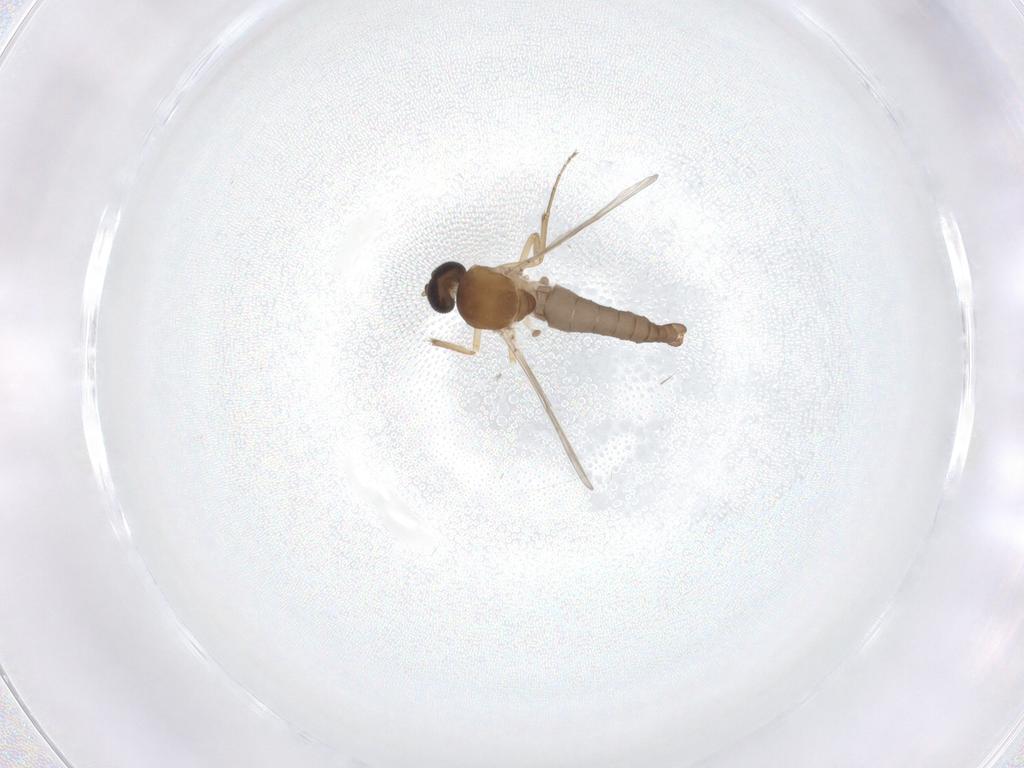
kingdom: Animalia
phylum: Arthropoda
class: Insecta
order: Diptera
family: Ceratopogonidae
